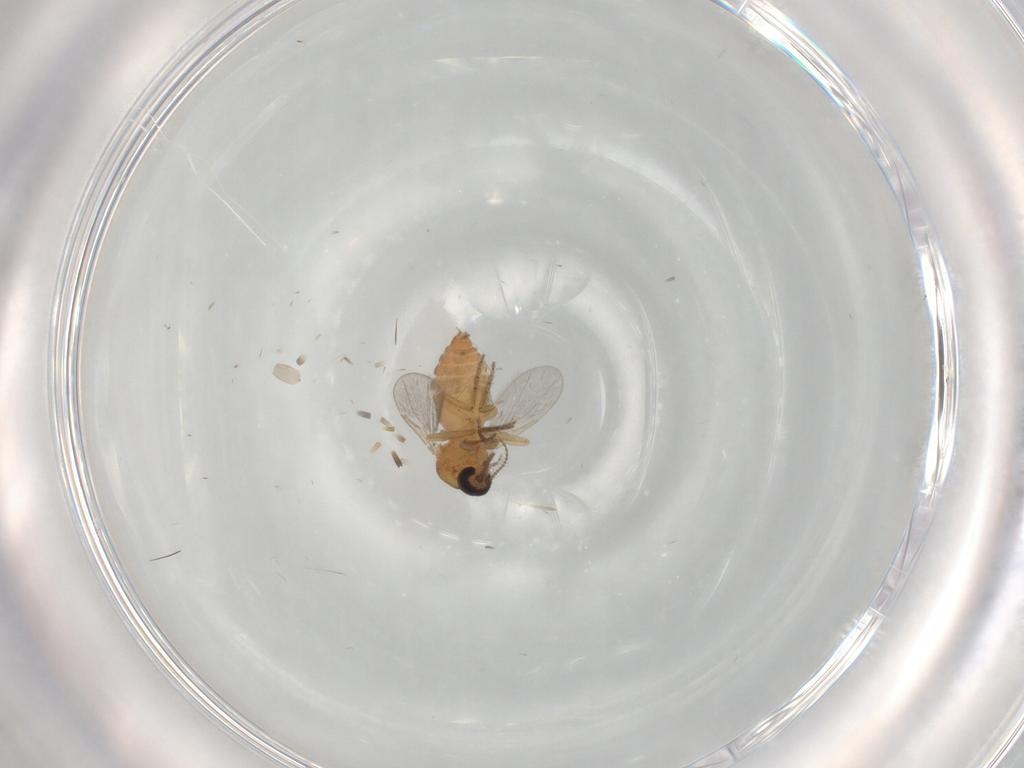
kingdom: Animalia
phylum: Arthropoda
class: Insecta
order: Diptera
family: Ceratopogonidae
